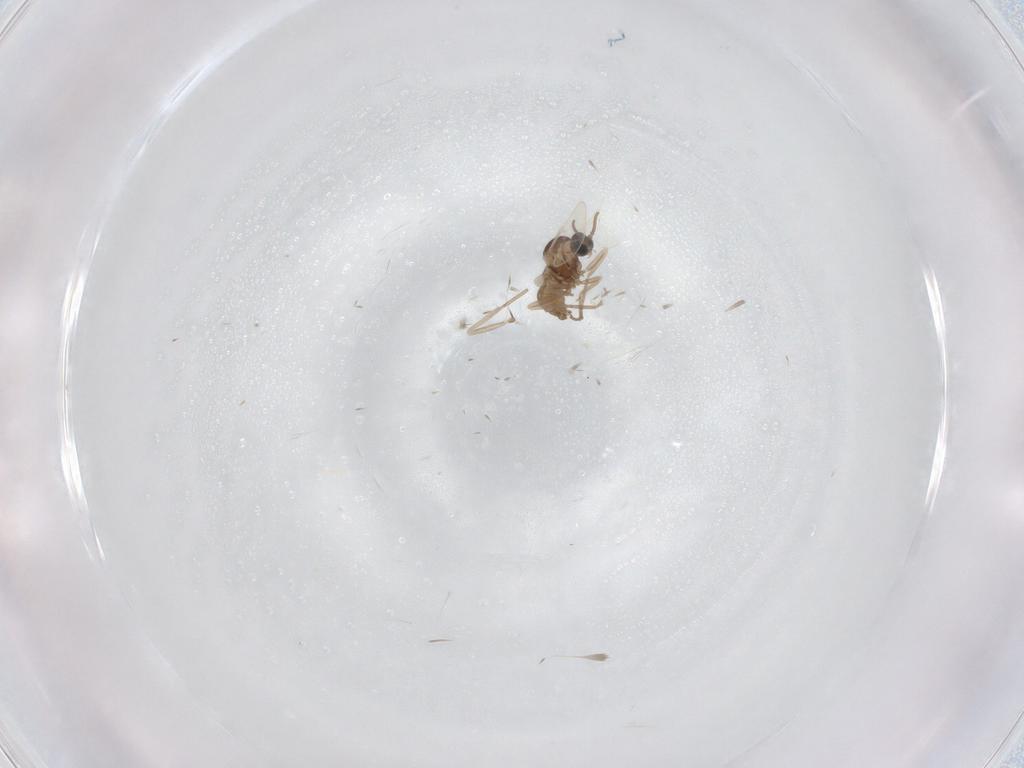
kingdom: Animalia
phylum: Arthropoda
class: Insecta
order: Diptera
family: Cecidomyiidae
